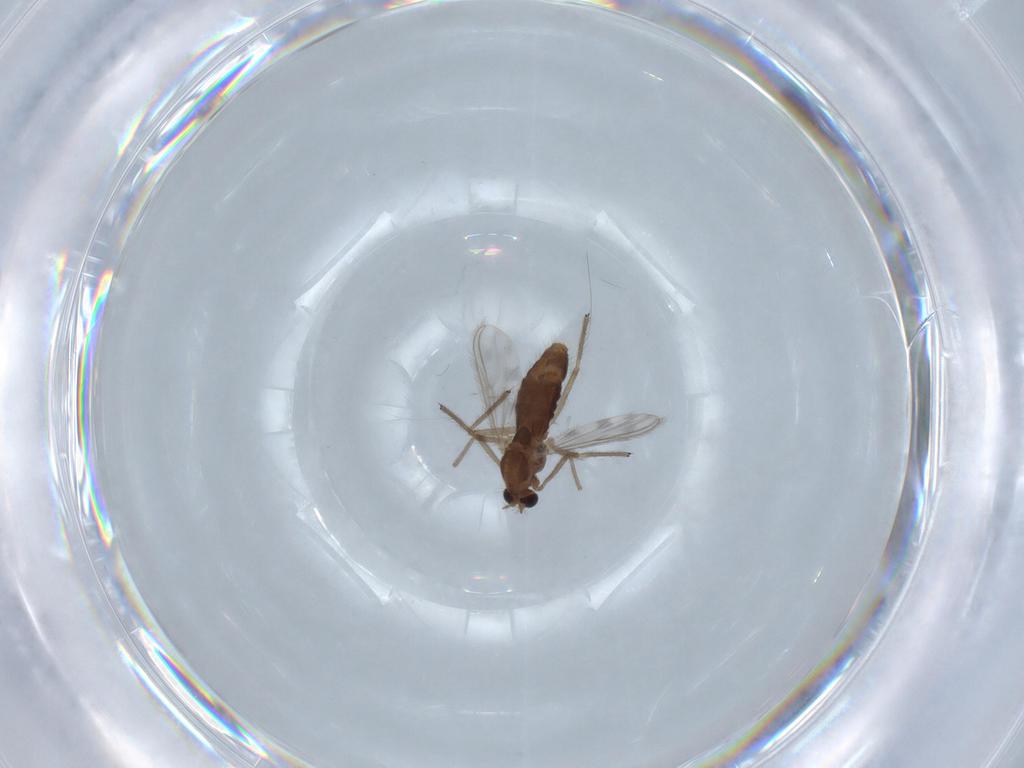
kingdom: Animalia
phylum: Arthropoda
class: Insecta
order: Diptera
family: Chironomidae
